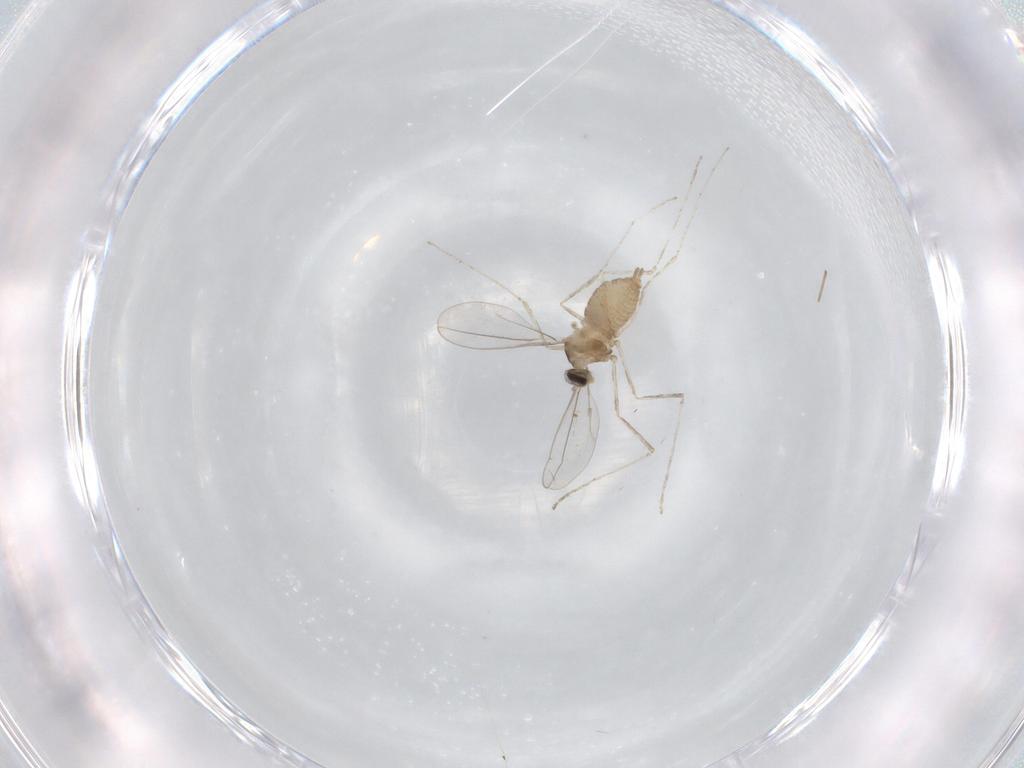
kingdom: Animalia
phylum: Arthropoda
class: Insecta
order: Diptera
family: Cecidomyiidae
